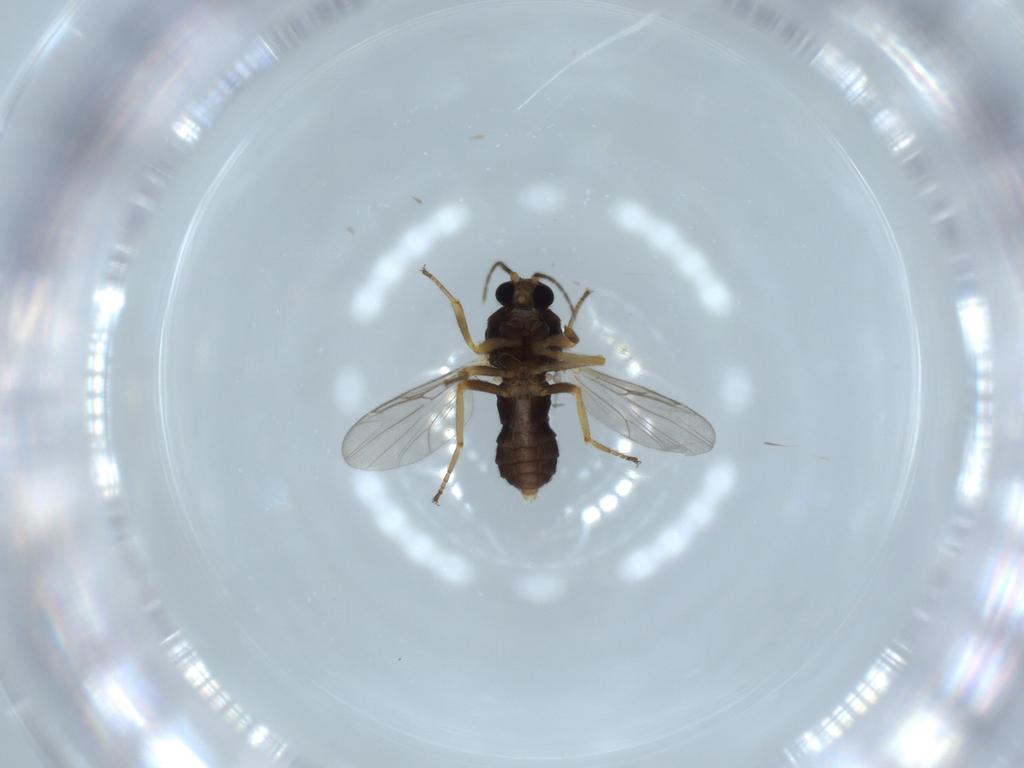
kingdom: Animalia
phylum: Arthropoda
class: Insecta
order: Diptera
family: Ceratopogonidae
